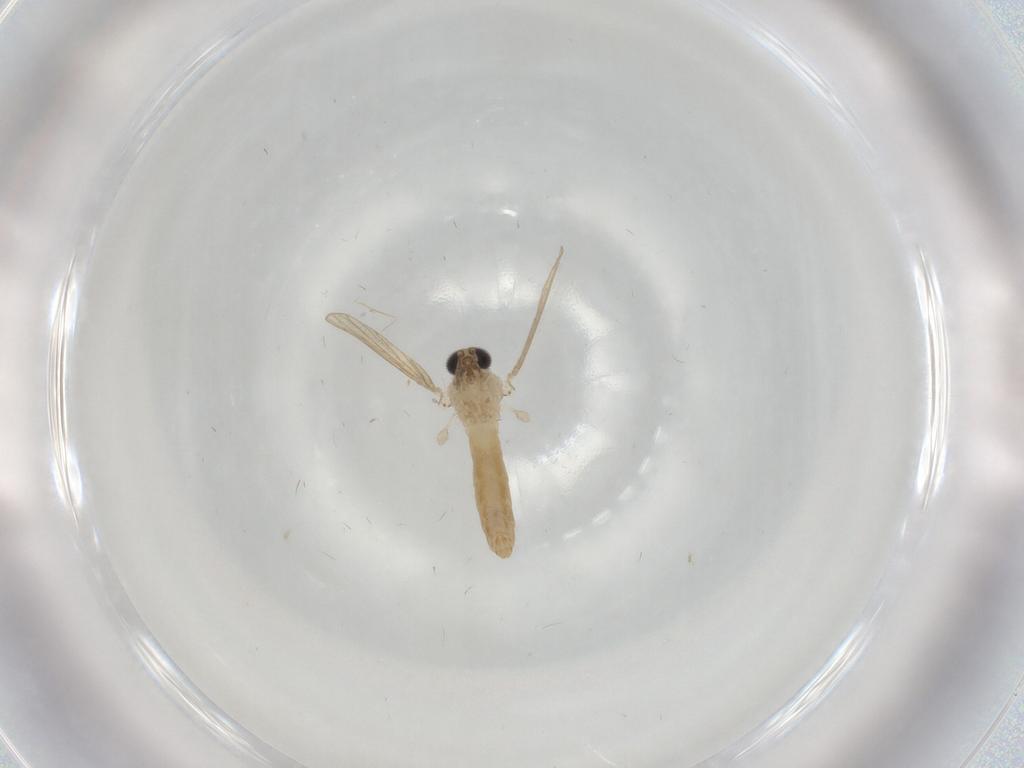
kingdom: Animalia
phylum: Arthropoda
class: Insecta
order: Diptera
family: Psychodidae
